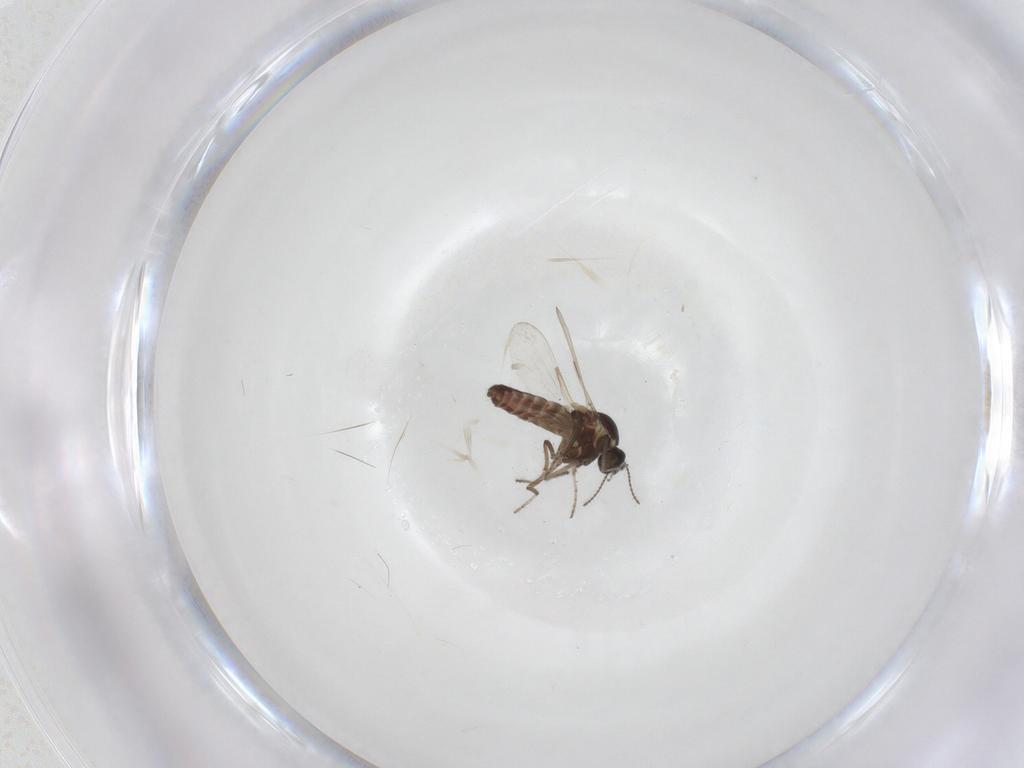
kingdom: Animalia
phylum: Arthropoda
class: Insecta
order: Diptera
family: Ceratopogonidae
